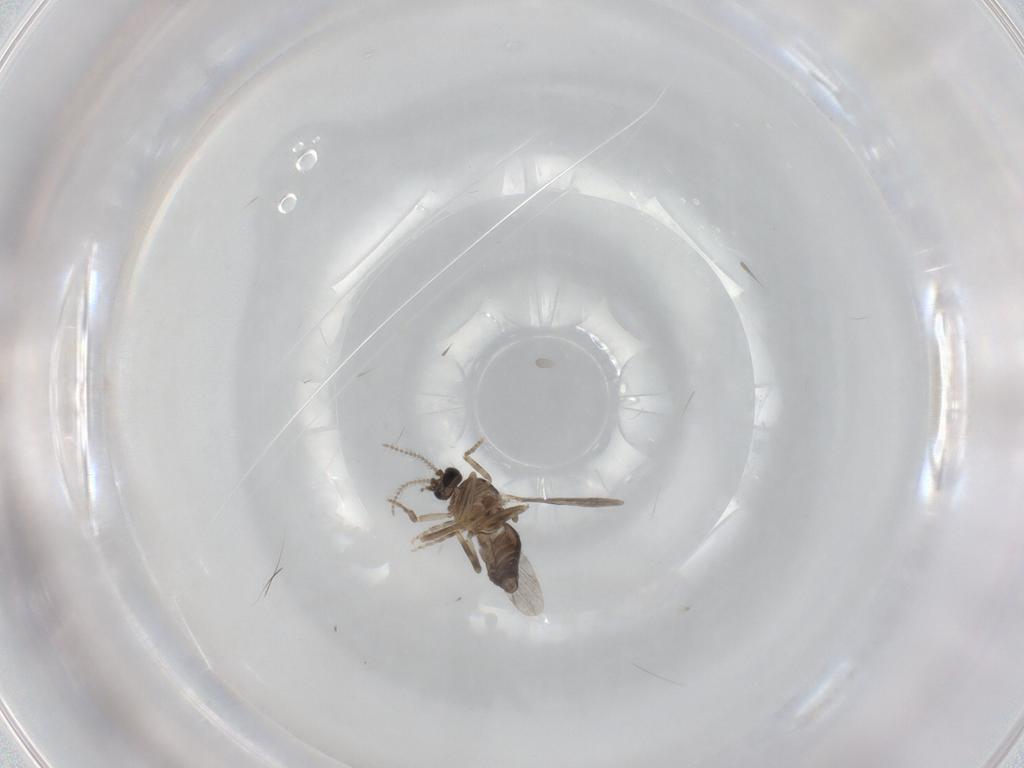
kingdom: Animalia
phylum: Arthropoda
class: Insecta
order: Diptera
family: Ceratopogonidae
